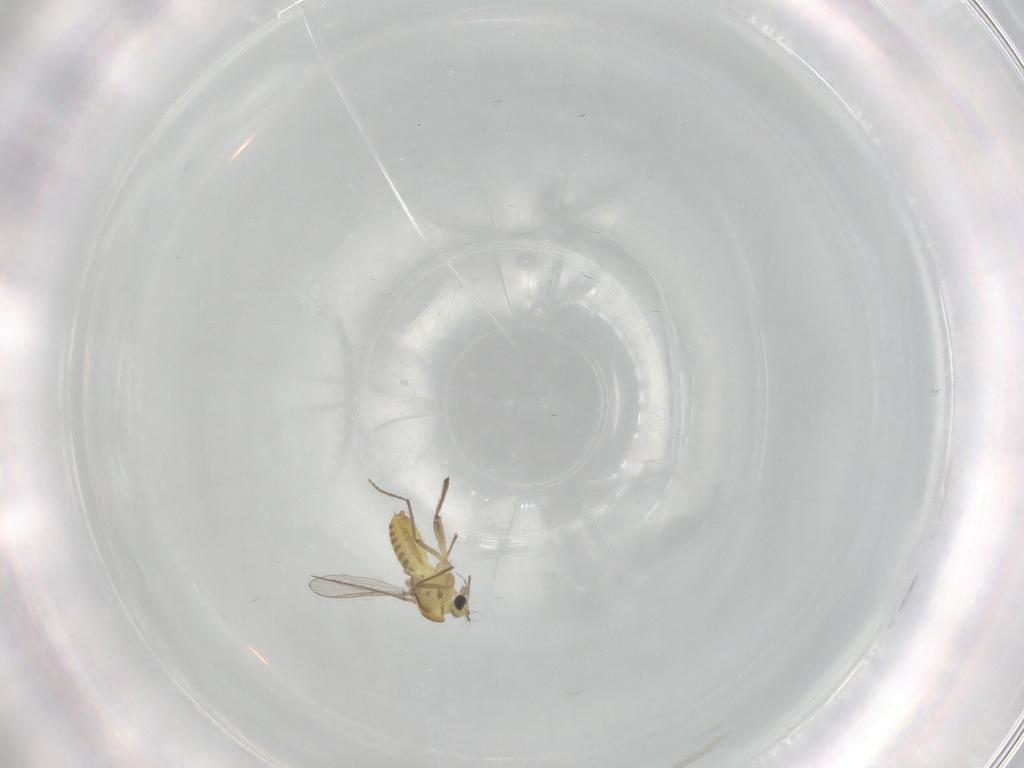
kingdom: Animalia
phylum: Arthropoda
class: Insecta
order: Diptera
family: Chironomidae
